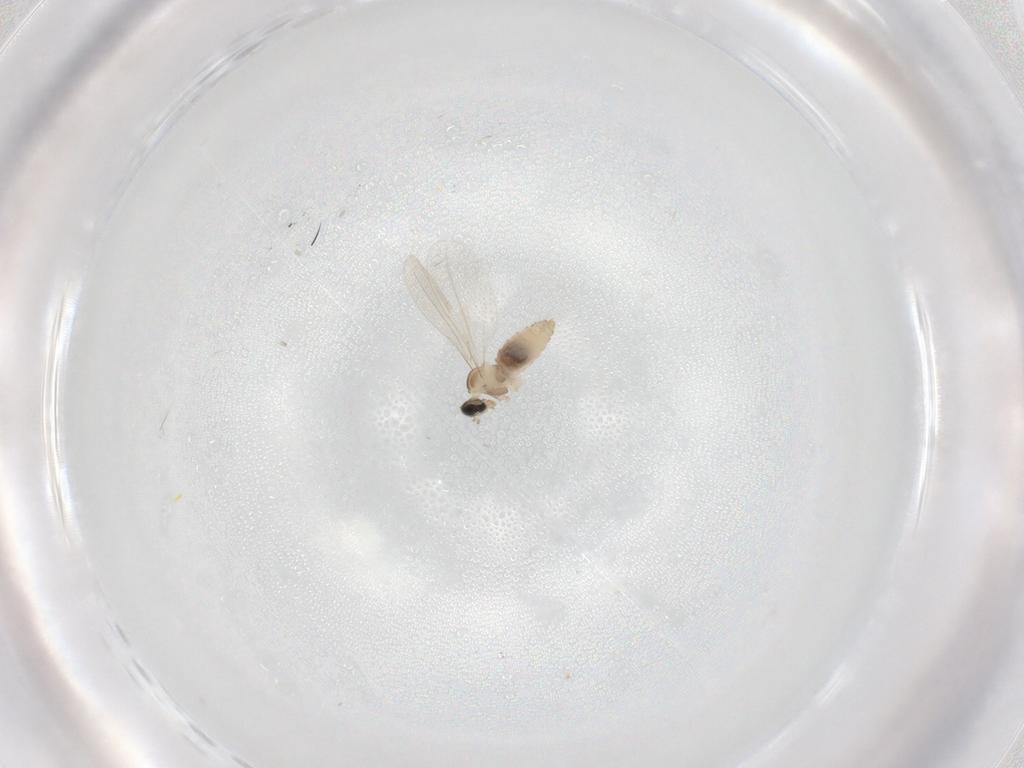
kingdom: Animalia
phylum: Arthropoda
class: Insecta
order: Diptera
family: Cecidomyiidae
